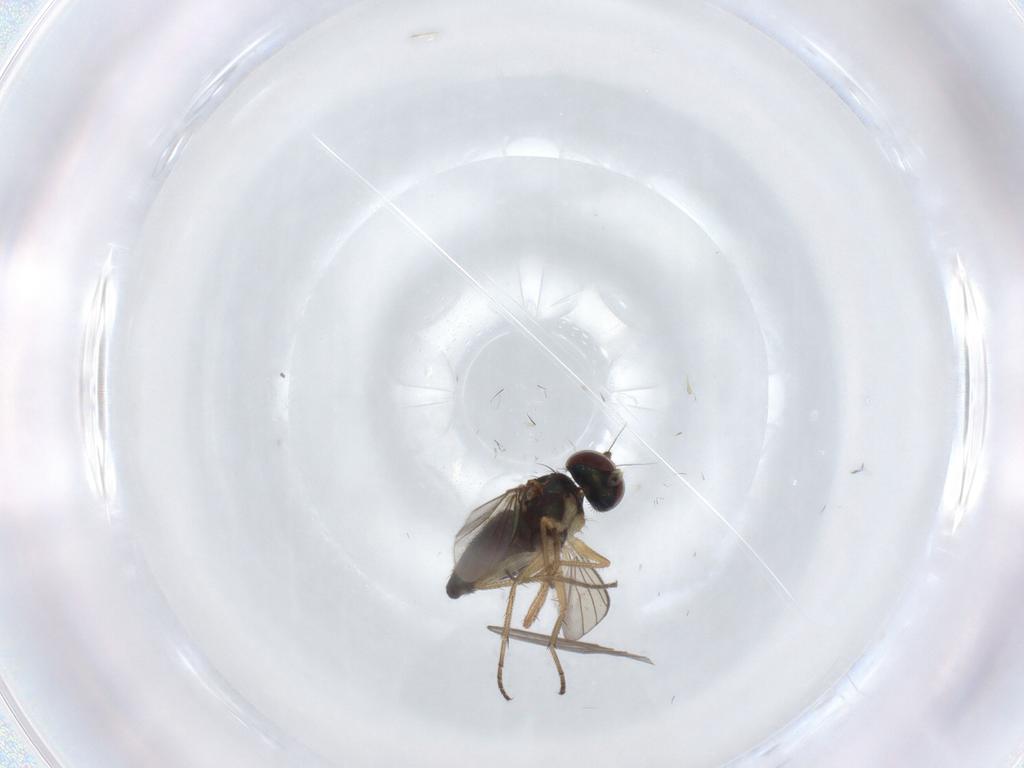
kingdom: Animalia
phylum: Arthropoda
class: Insecta
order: Diptera
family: Dolichopodidae
